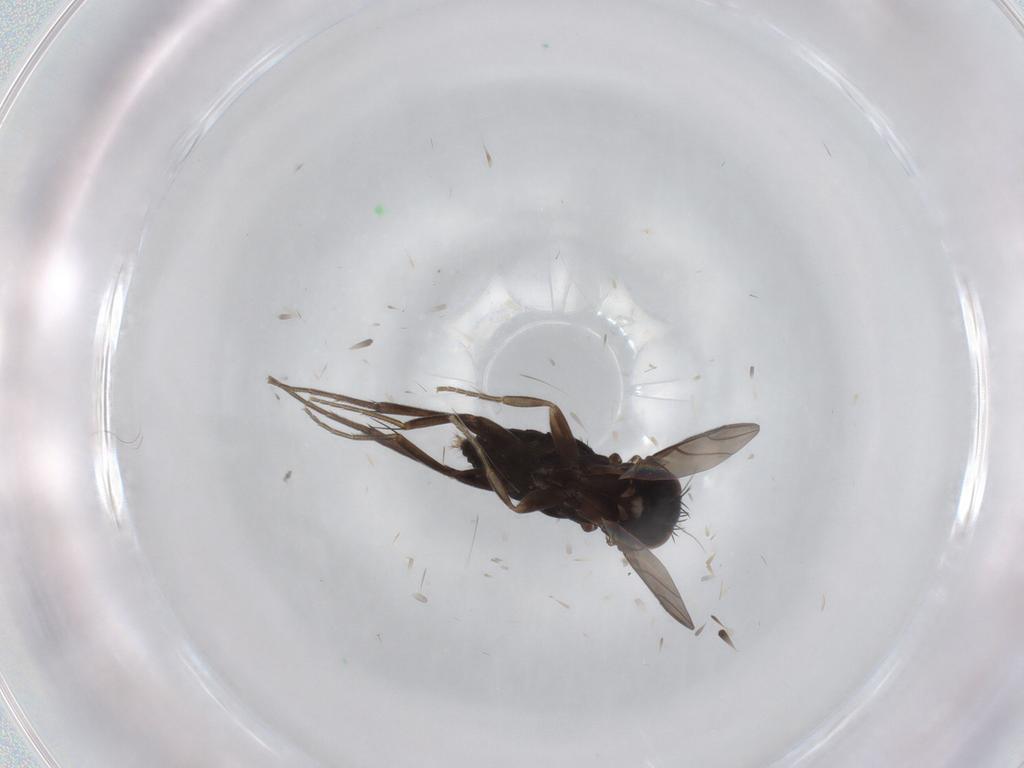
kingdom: Animalia
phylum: Arthropoda
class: Insecta
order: Diptera
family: Phoridae
